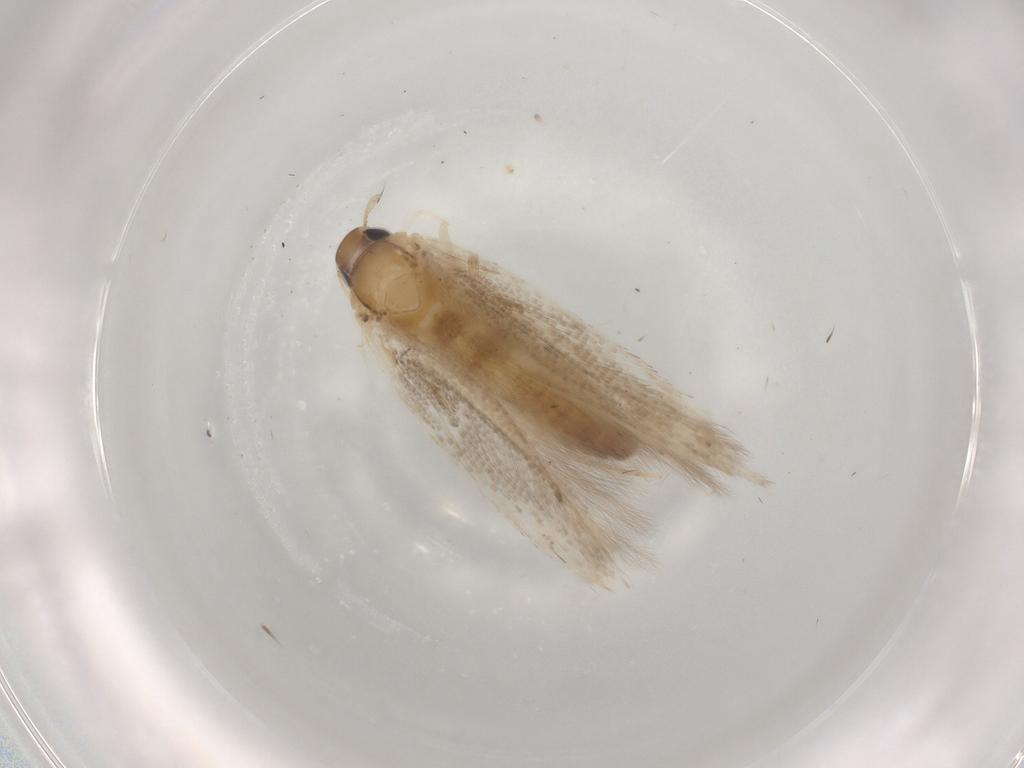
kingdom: Animalia
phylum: Arthropoda
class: Insecta
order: Lepidoptera
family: Cosmopterigidae
